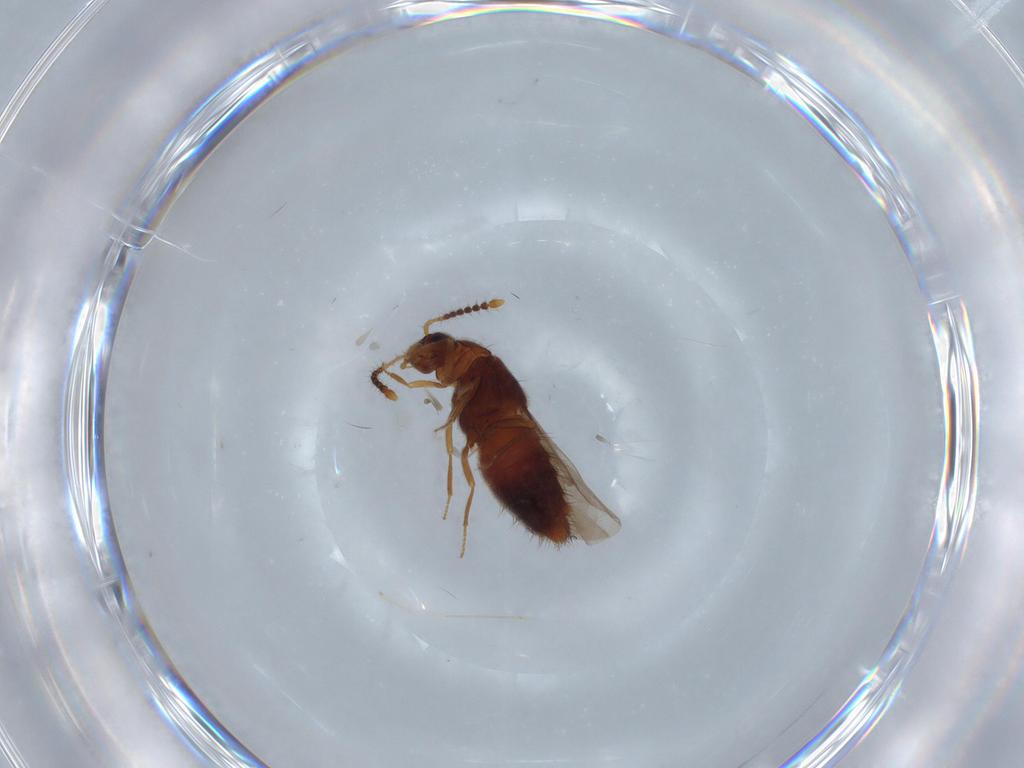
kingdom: Animalia
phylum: Arthropoda
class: Insecta
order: Coleoptera
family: Staphylinidae
